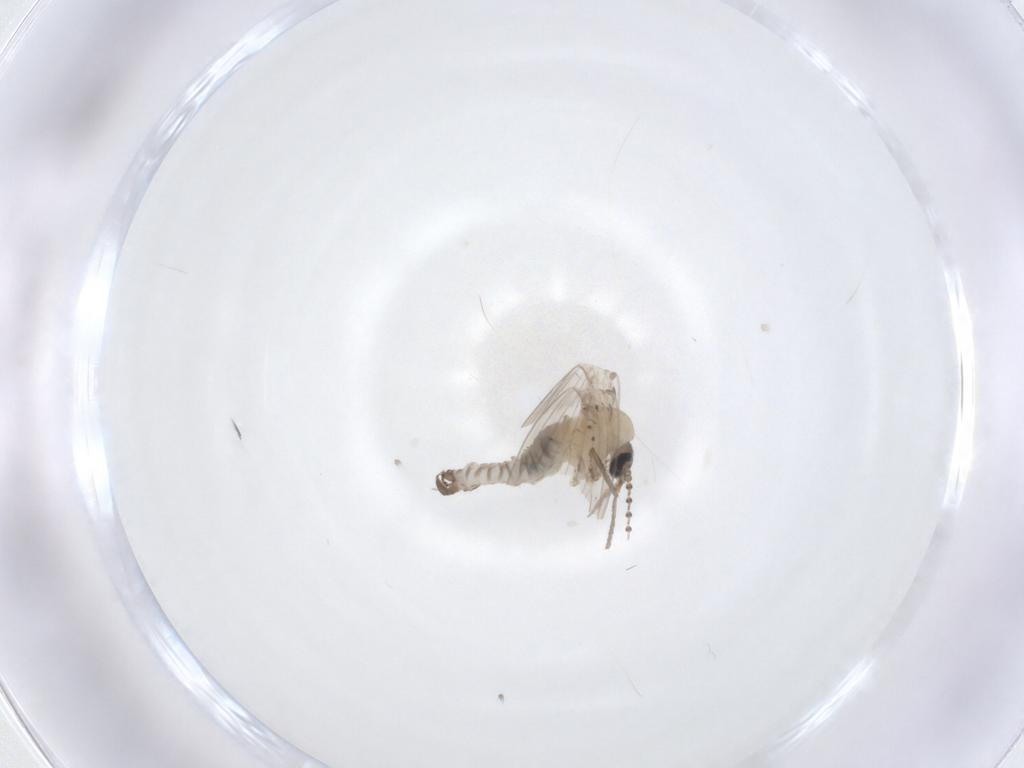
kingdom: Animalia
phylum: Arthropoda
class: Insecta
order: Diptera
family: Psychodidae
